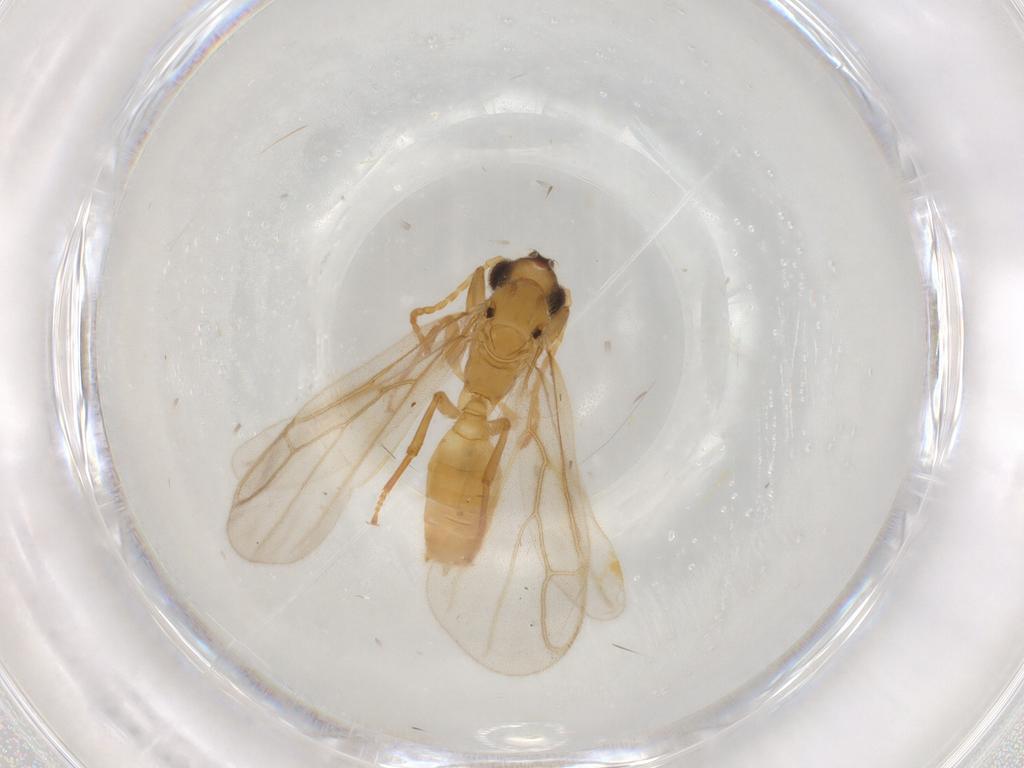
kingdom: Animalia
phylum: Arthropoda
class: Insecta
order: Hymenoptera
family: Formicidae
